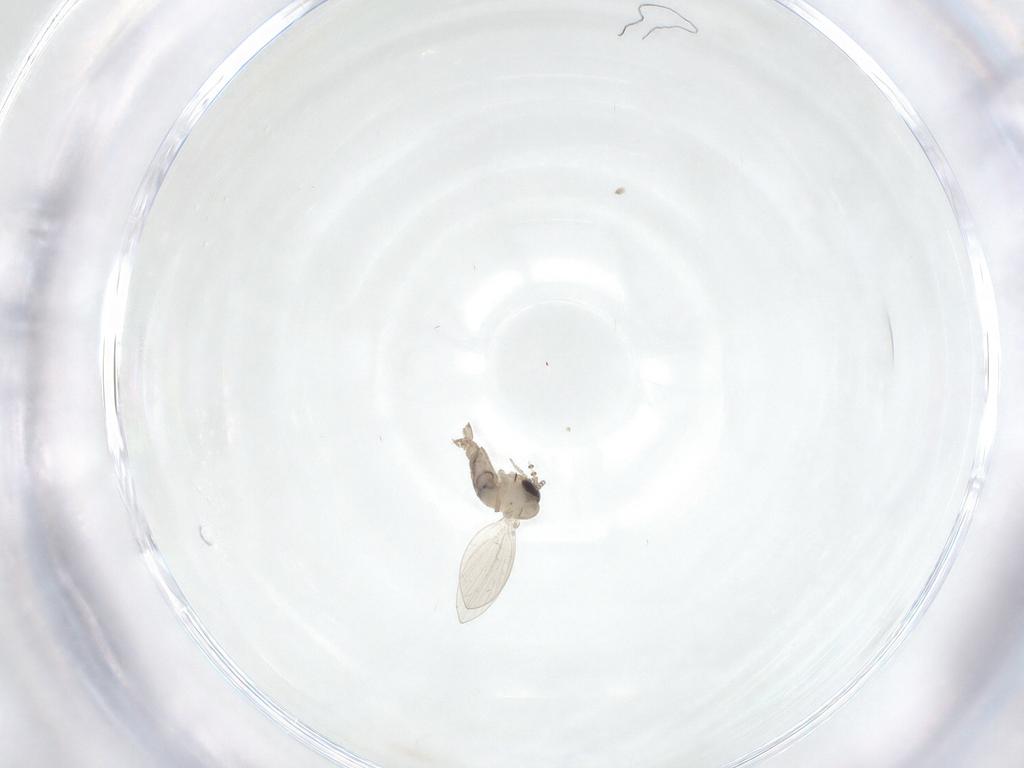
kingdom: Animalia
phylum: Arthropoda
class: Insecta
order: Diptera
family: Psychodidae
